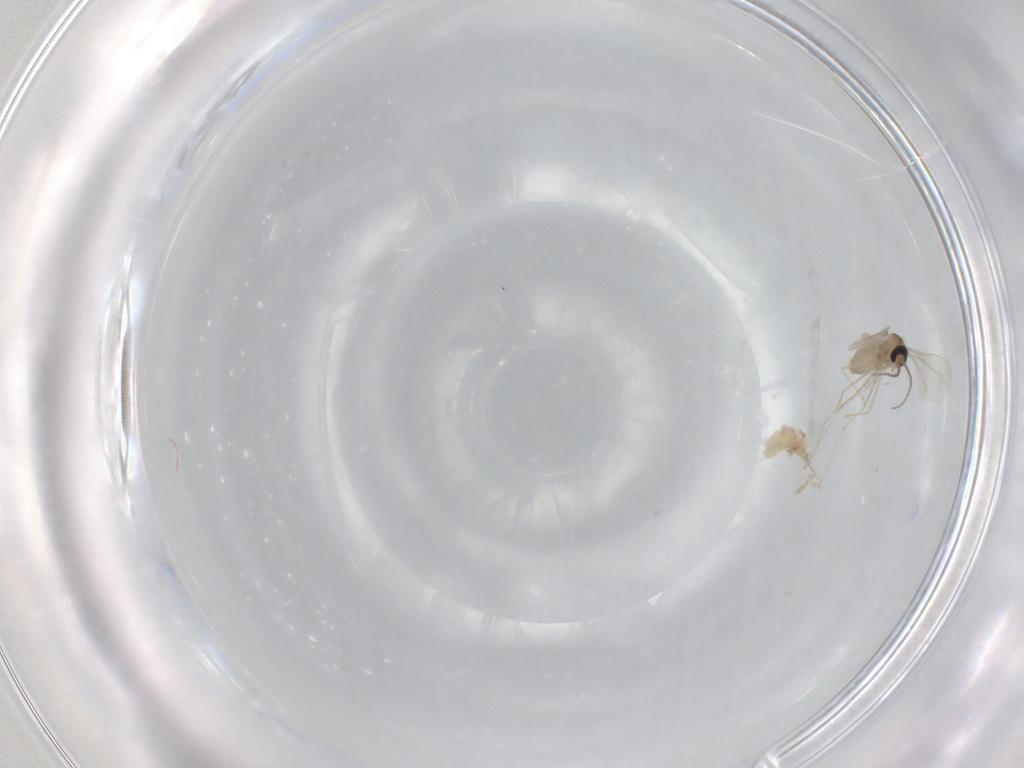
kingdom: Animalia
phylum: Arthropoda
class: Insecta
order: Diptera
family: Cecidomyiidae
